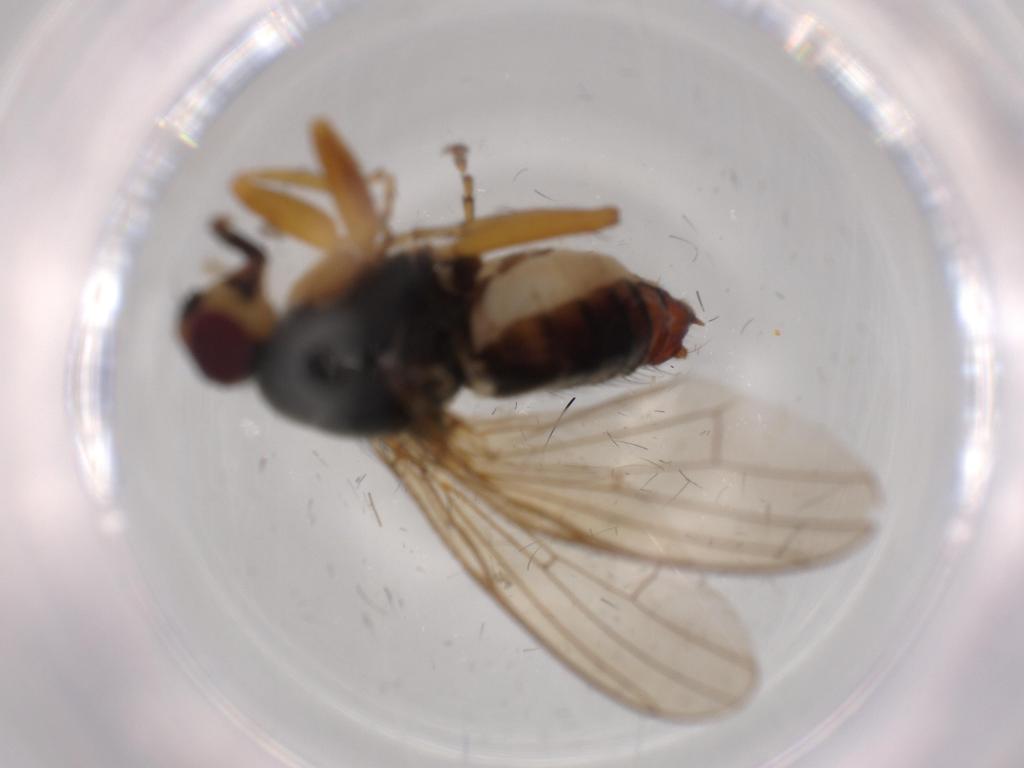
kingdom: Animalia
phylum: Arthropoda
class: Insecta
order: Diptera
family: Scathophagidae
